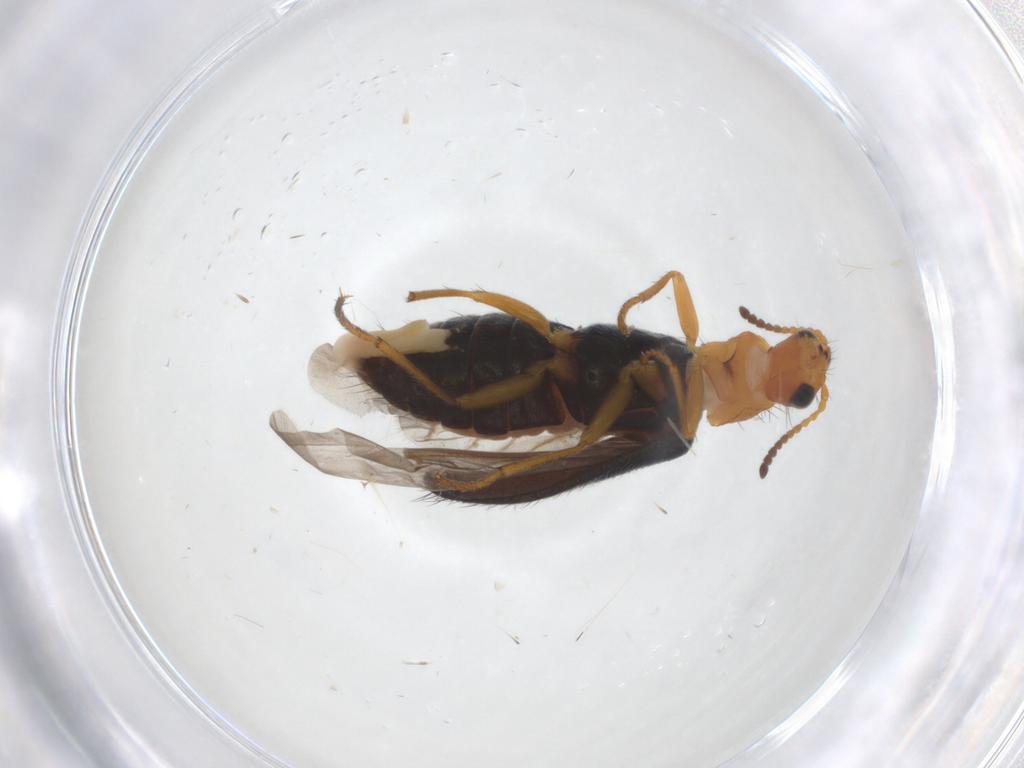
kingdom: Animalia
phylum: Arthropoda
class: Insecta
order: Coleoptera
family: Melyridae
